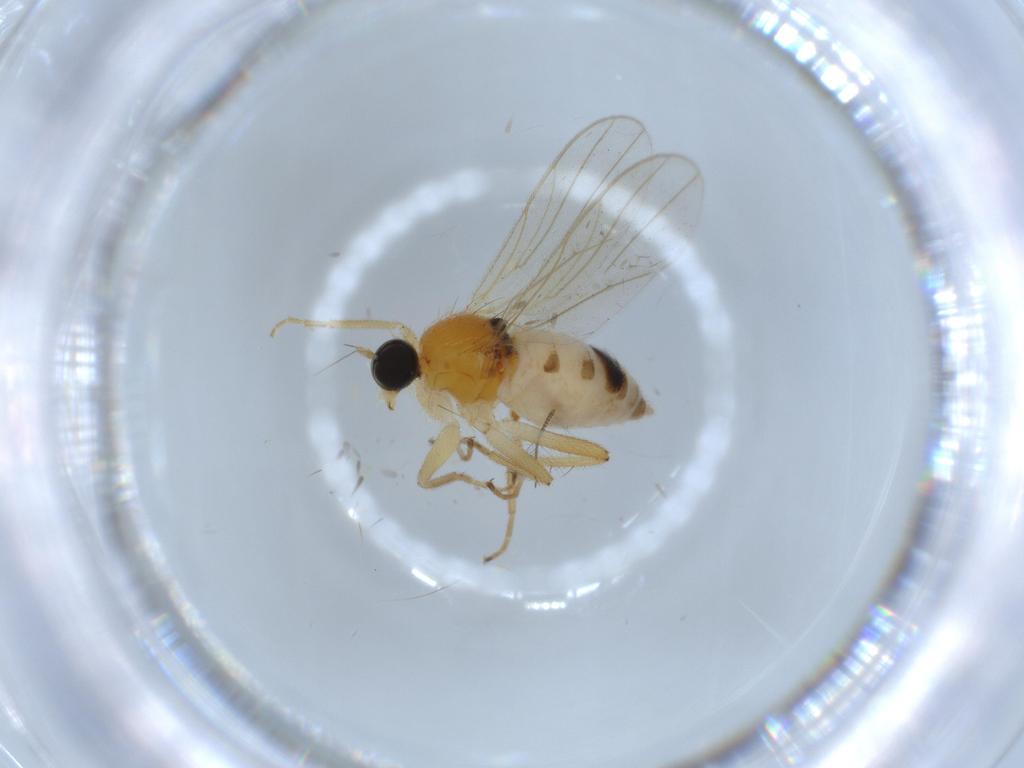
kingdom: Animalia
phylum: Arthropoda
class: Insecta
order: Diptera
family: Hybotidae
